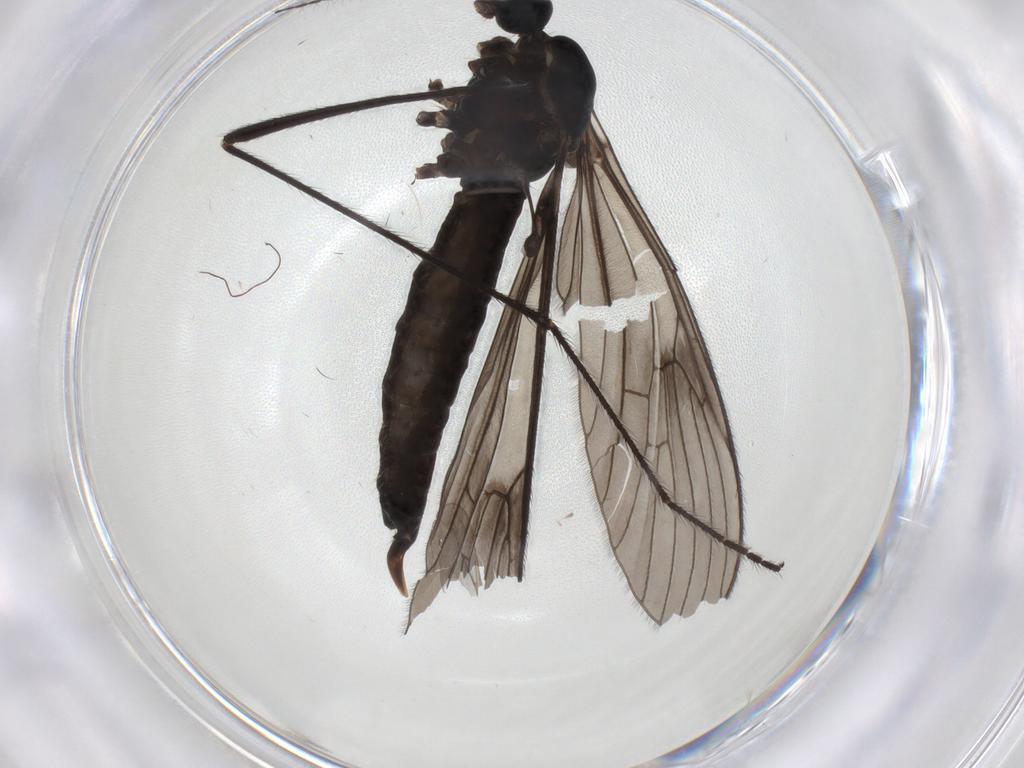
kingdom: Animalia
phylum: Arthropoda
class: Insecta
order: Diptera
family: Limoniidae
